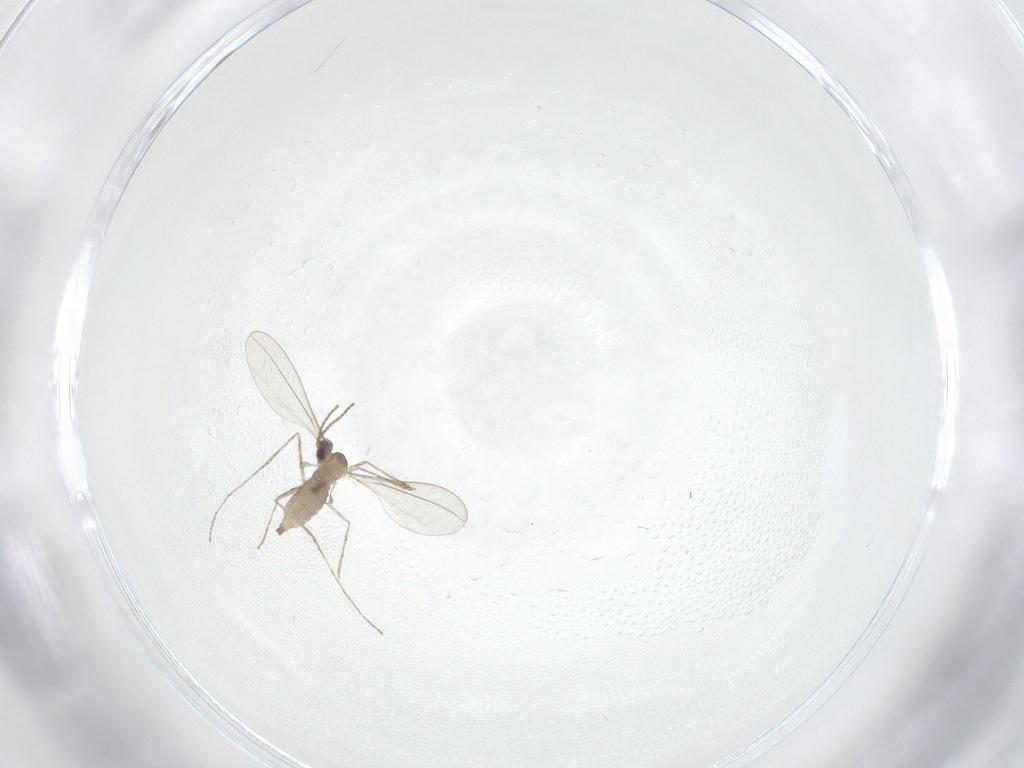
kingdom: Animalia
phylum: Arthropoda
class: Insecta
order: Diptera
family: Cecidomyiidae
